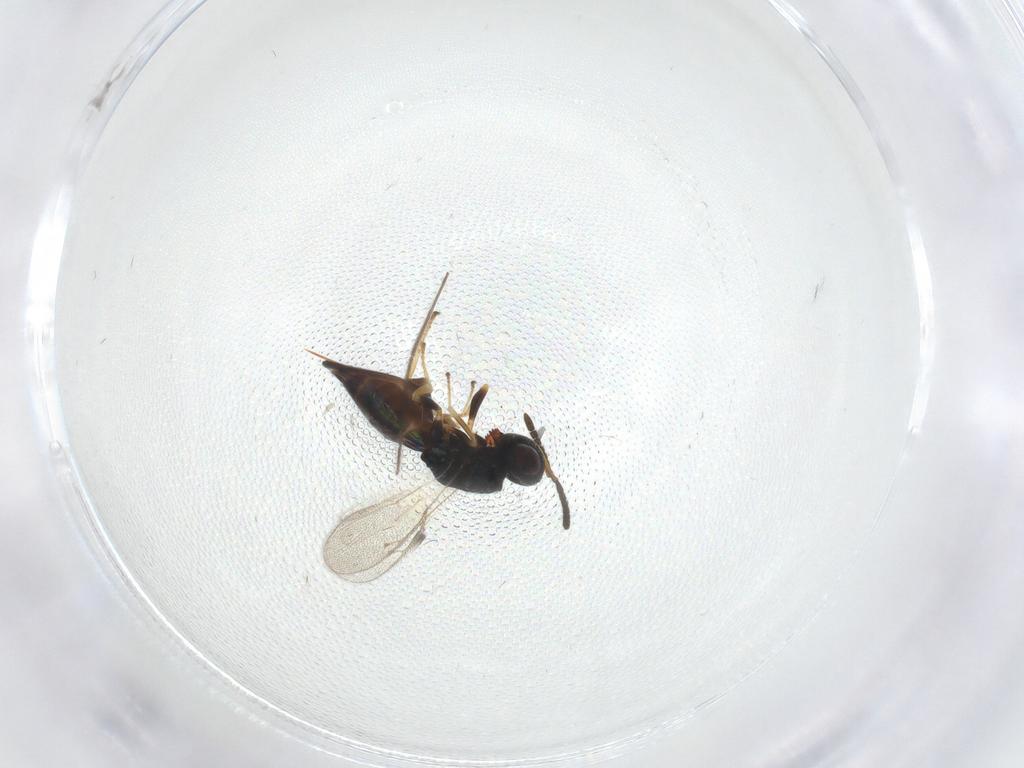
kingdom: Animalia
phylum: Arthropoda
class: Insecta
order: Hymenoptera
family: Pteromalidae
